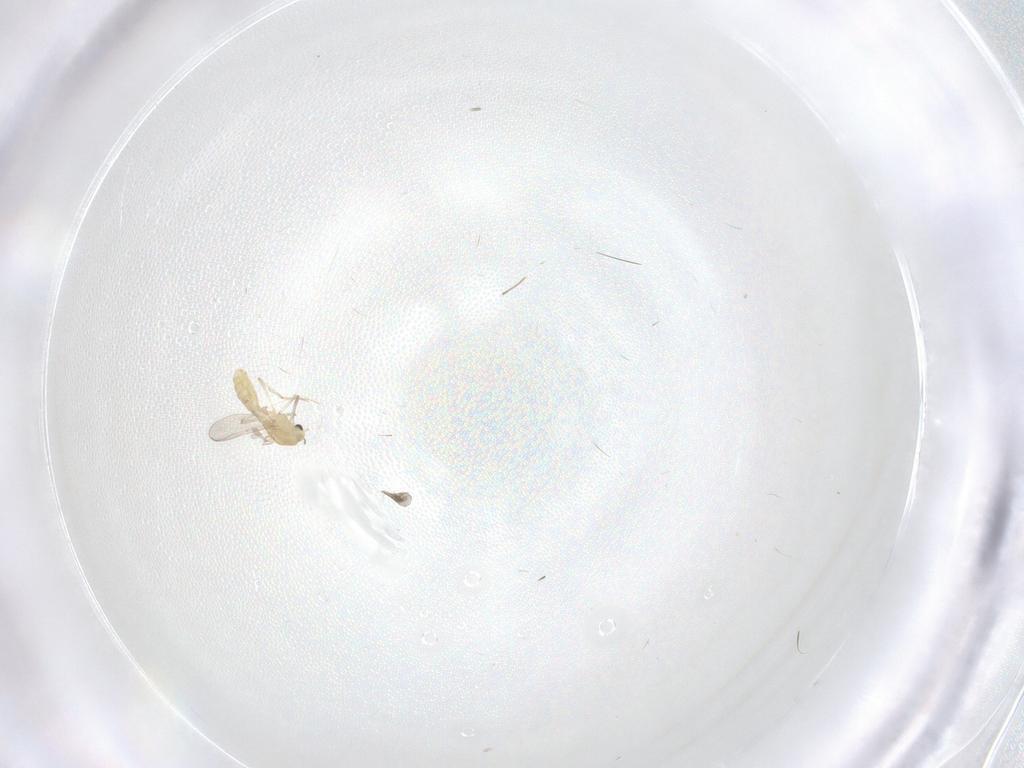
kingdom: Animalia
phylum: Arthropoda
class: Insecta
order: Diptera
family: Chironomidae
